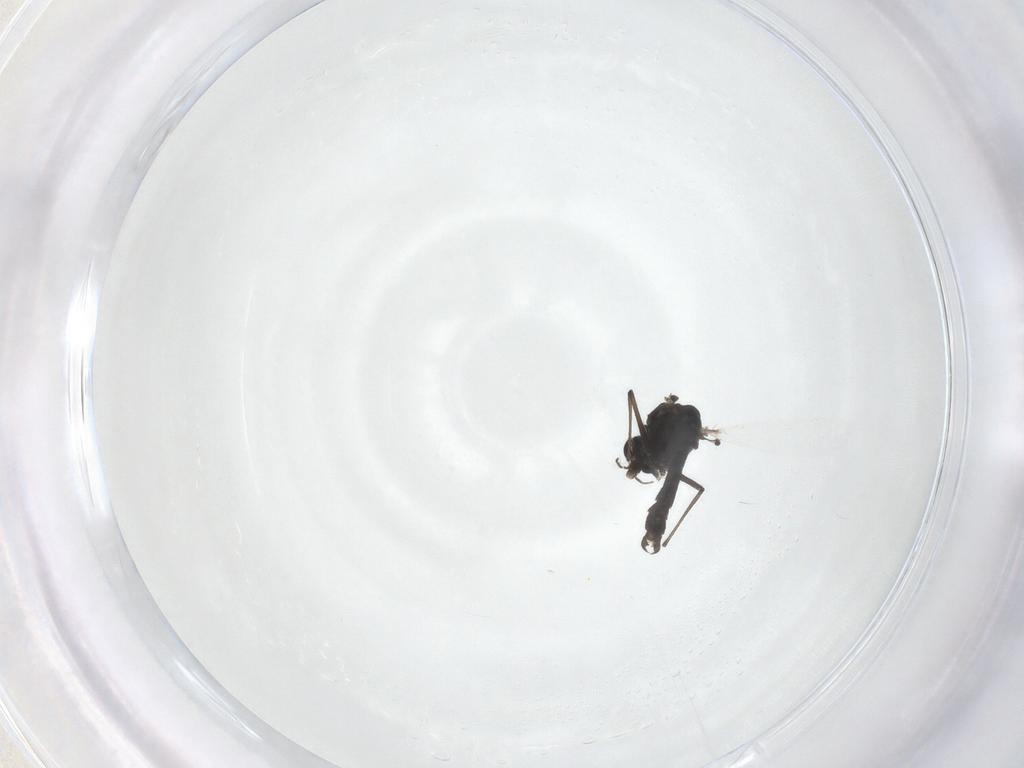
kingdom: Animalia
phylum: Arthropoda
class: Insecta
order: Diptera
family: Chironomidae
